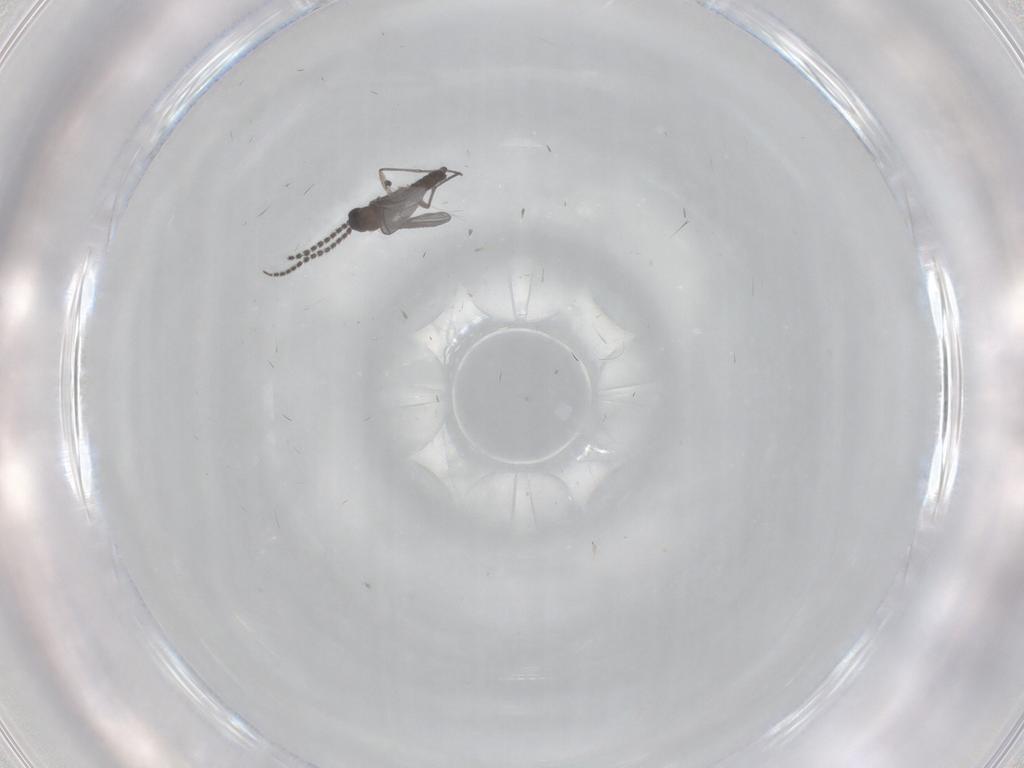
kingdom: Animalia
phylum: Arthropoda
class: Insecta
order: Diptera
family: Sciaridae
